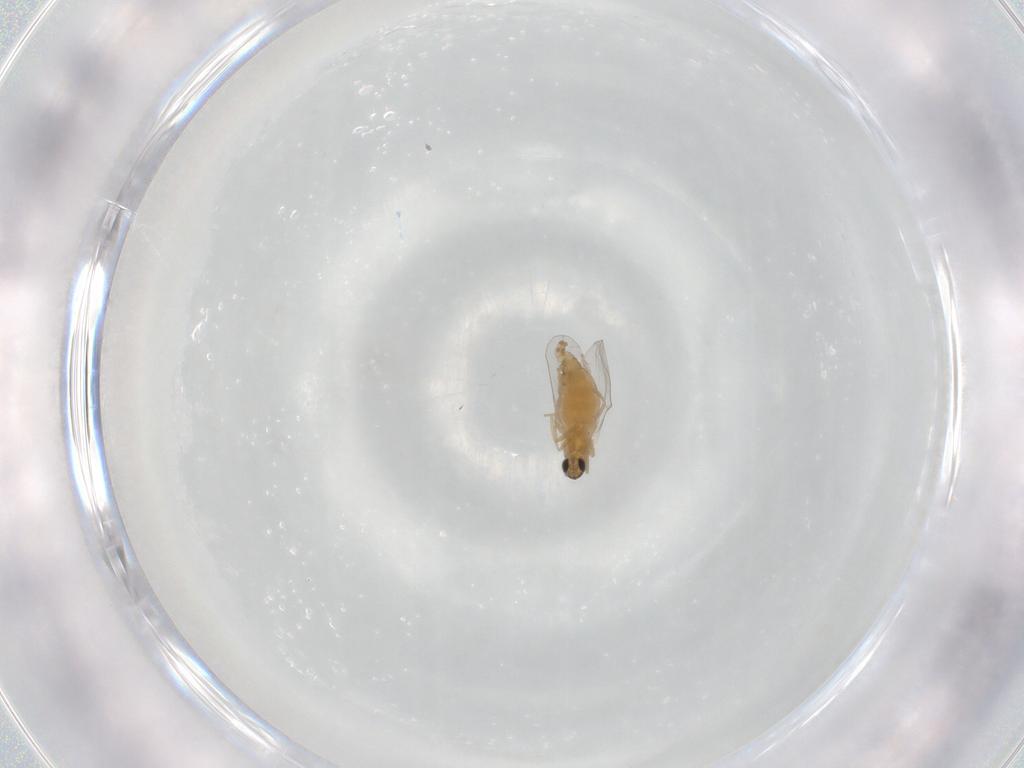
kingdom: Animalia
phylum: Arthropoda
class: Insecta
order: Diptera
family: Cecidomyiidae
